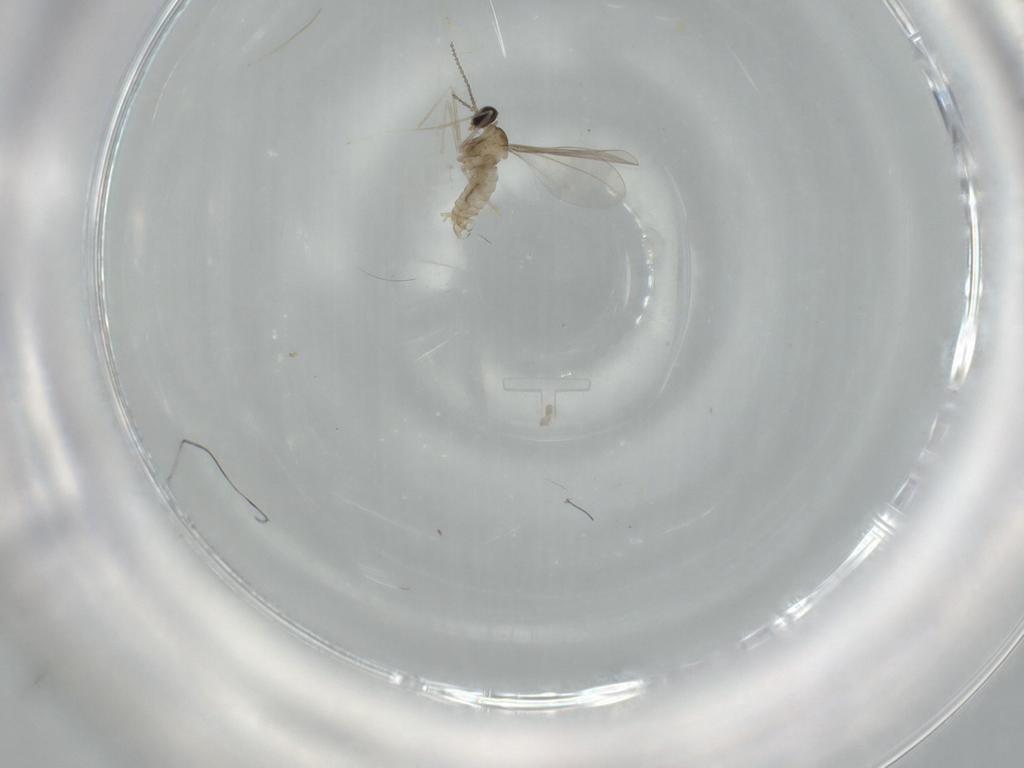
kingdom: Animalia
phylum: Arthropoda
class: Insecta
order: Diptera
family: Cecidomyiidae
